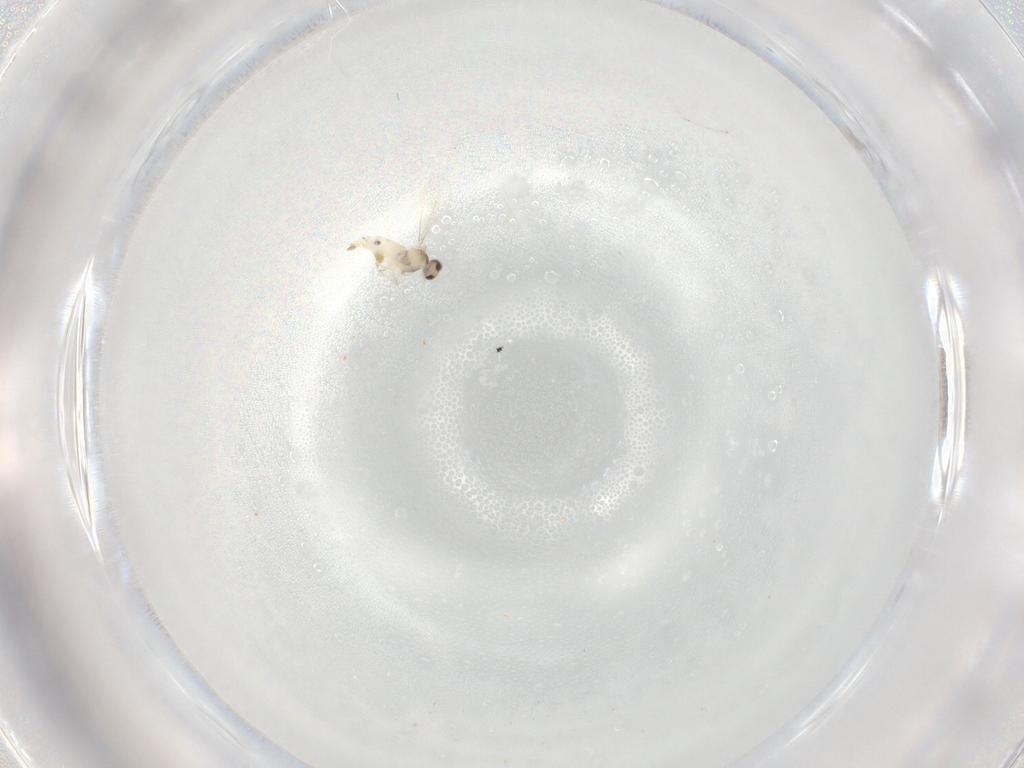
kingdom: Animalia
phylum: Arthropoda
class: Insecta
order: Diptera
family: Cecidomyiidae
